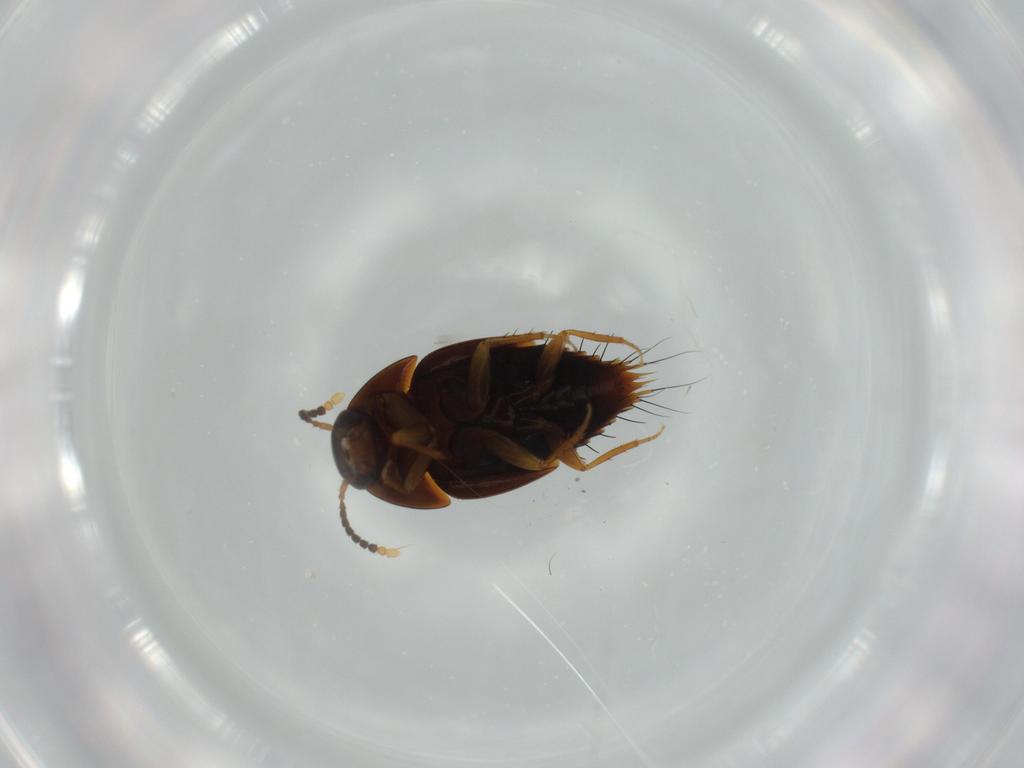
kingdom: Animalia
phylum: Arthropoda
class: Insecta
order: Coleoptera
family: Staphylinidae
